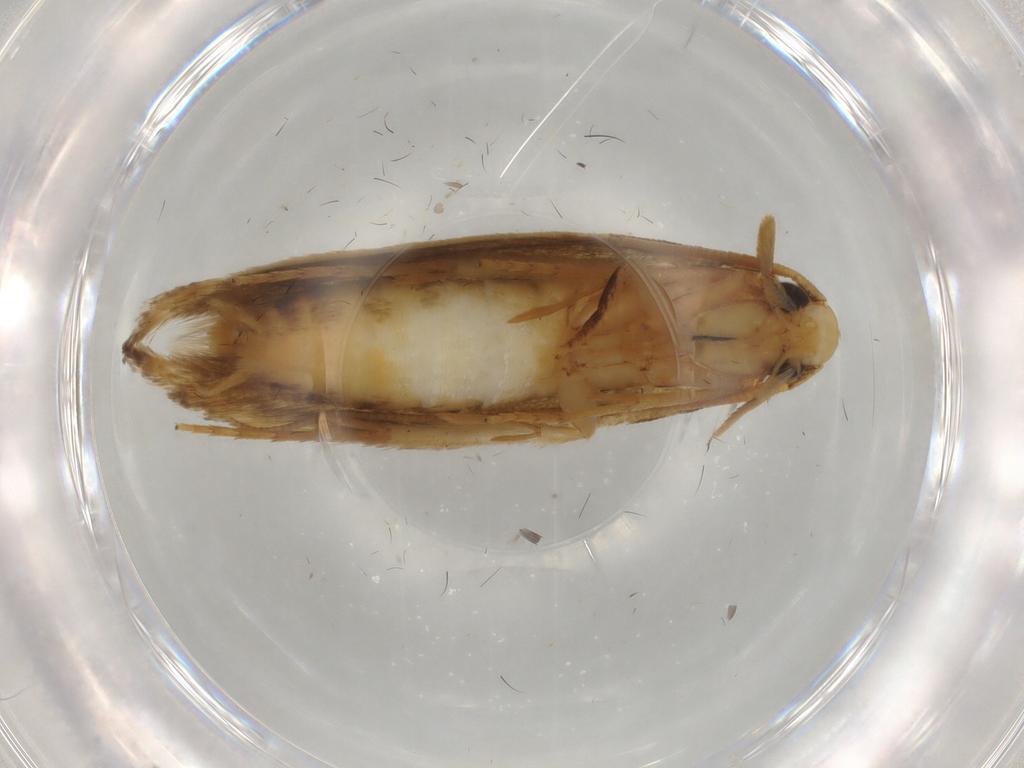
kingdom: Animalia
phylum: Arthropoda
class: Insecta
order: Lepidoptera
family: Tineidae
